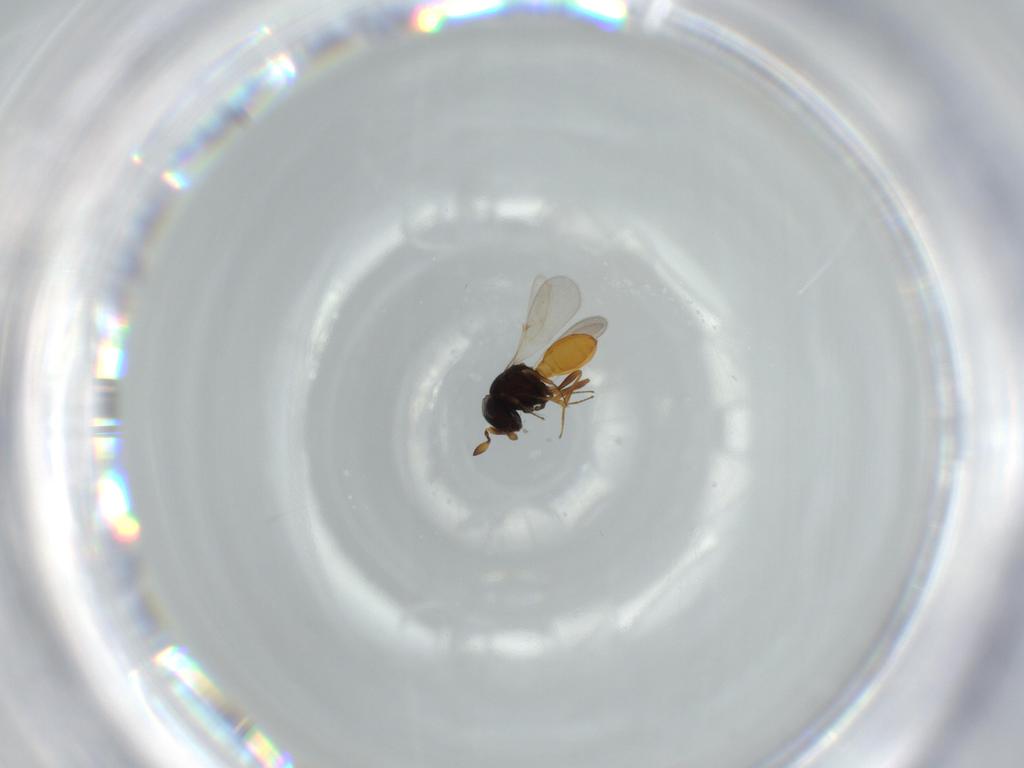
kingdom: Animalia
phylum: Arthropoda
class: Insecta
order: Hymenoptera
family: Scelionidae
